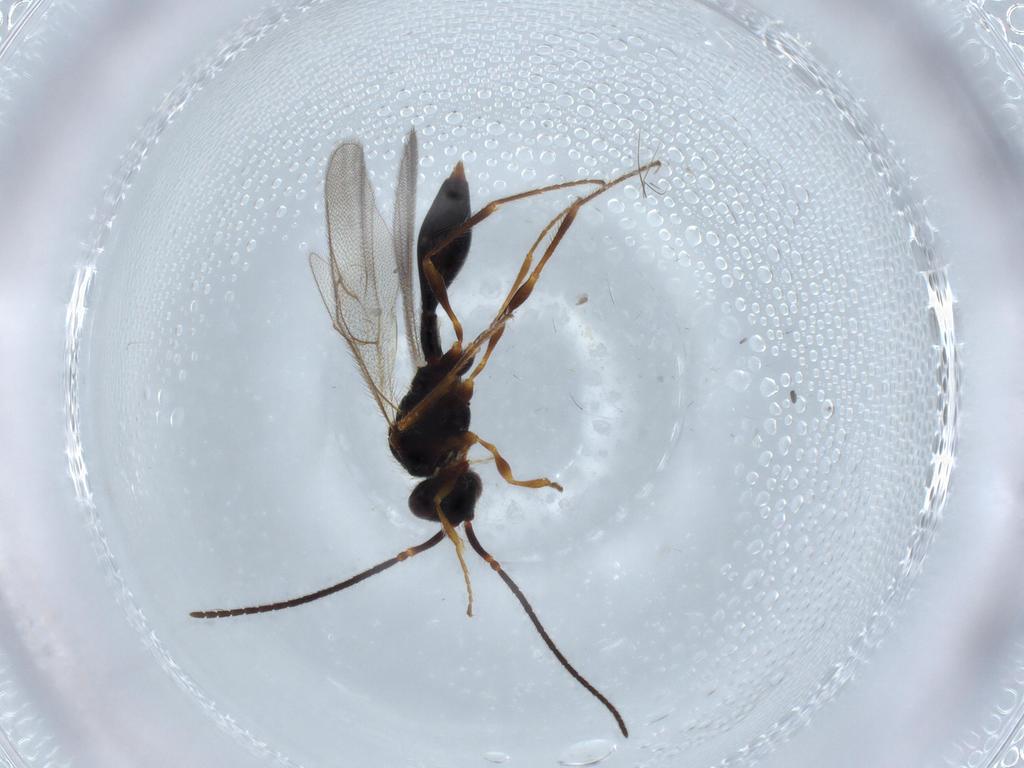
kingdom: Animalia
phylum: Arthropoda
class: Insecta
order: Hymenoptera
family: Diapriidae
